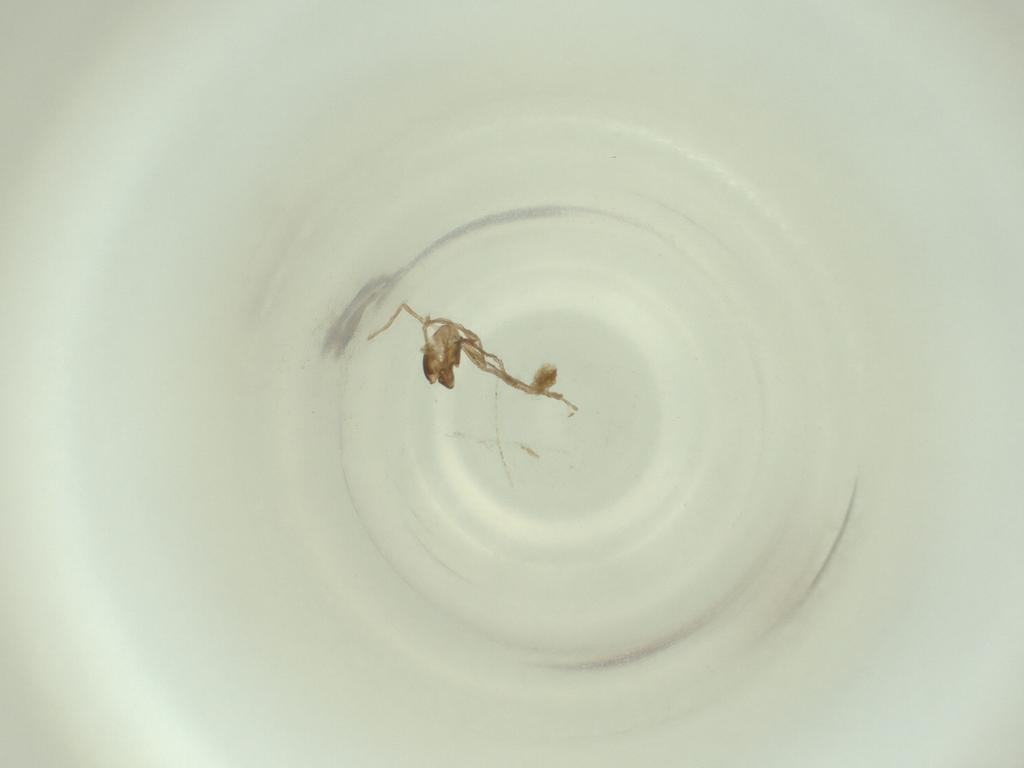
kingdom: Animalia
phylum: Arthropoda
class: Insecta
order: Diptera
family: Cecidomyiidae
